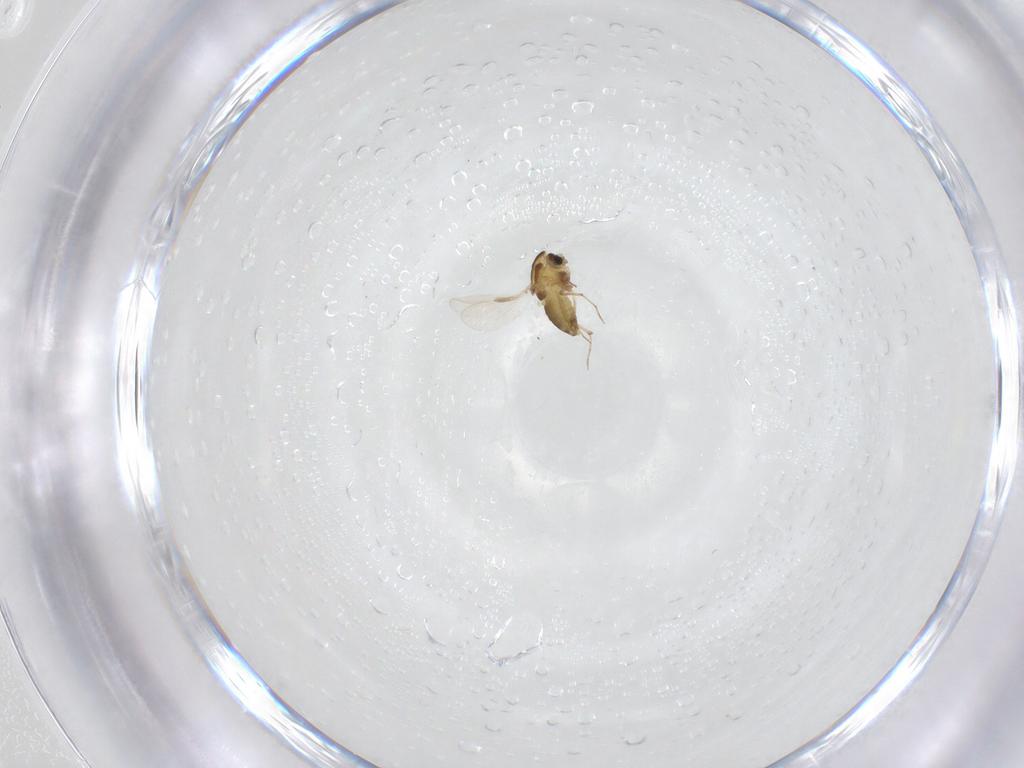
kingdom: Animalia
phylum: Arthropoda
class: Insecta
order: Diptera
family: Chironomidae
